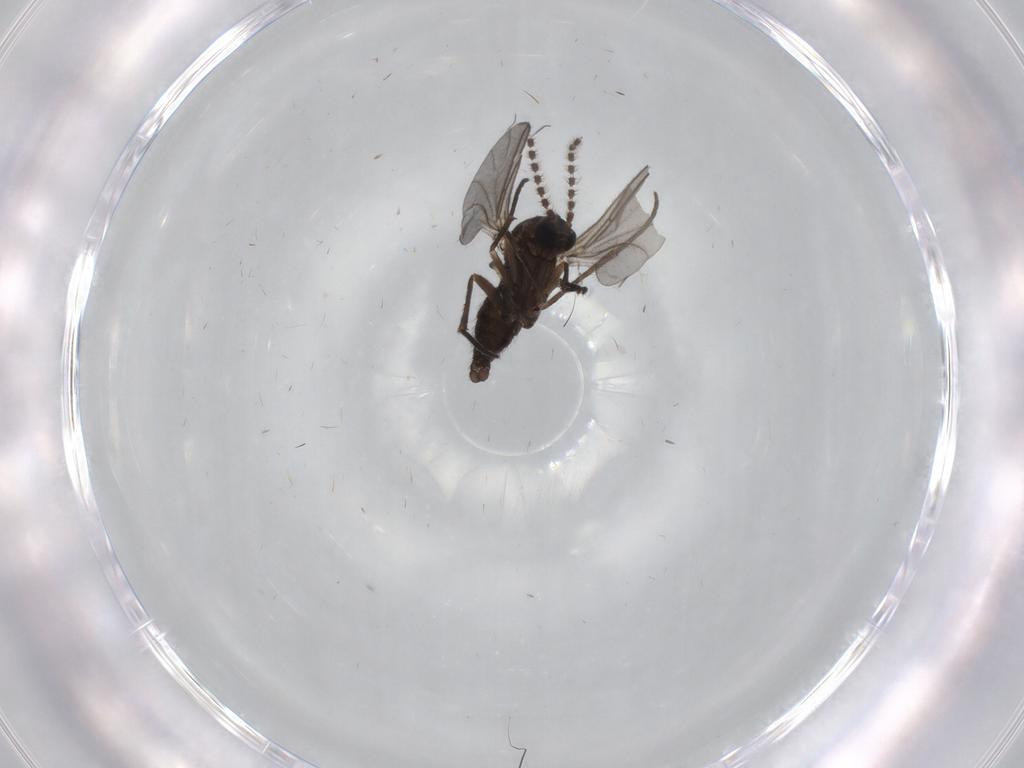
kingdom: Animalia
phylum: Arthropoda
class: Insecta
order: Diptera
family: Sciaridae
